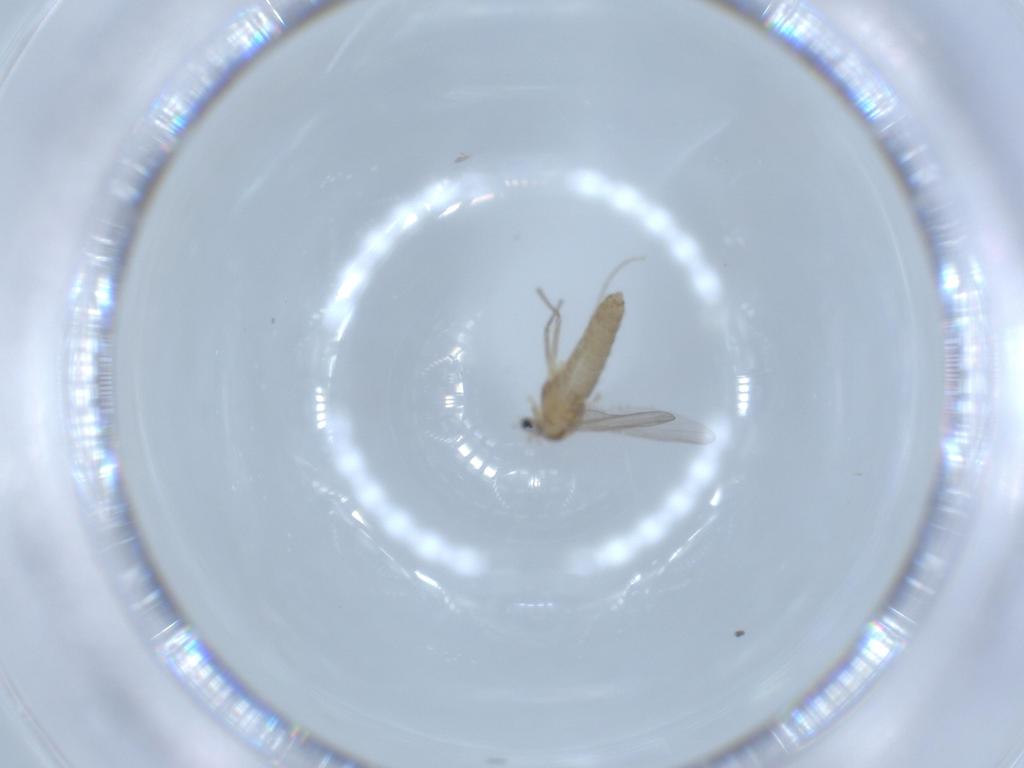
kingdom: Animalia
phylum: Arthropoda
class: Insecta
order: Diptera
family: Chironomidae
